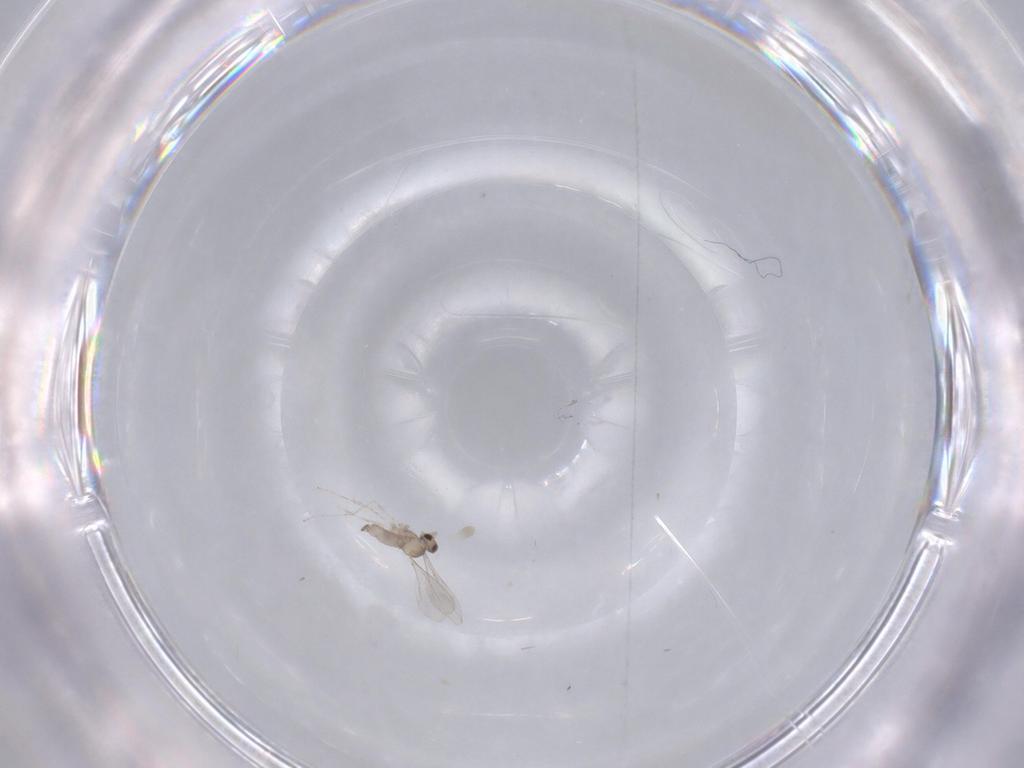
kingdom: Animalia
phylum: Arthropoda
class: Insecta
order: Diptera
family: Cecidomyiidae
